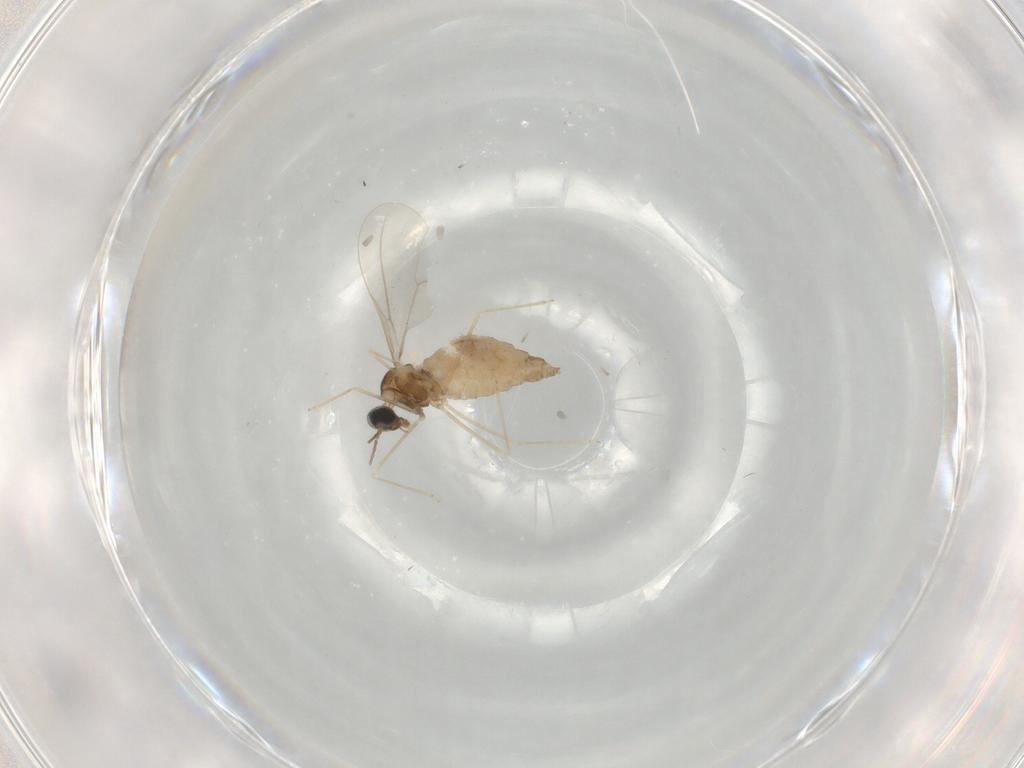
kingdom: Animalia
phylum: Arthropoda
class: Insecta
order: Diptera
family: Cecidomyiidae
